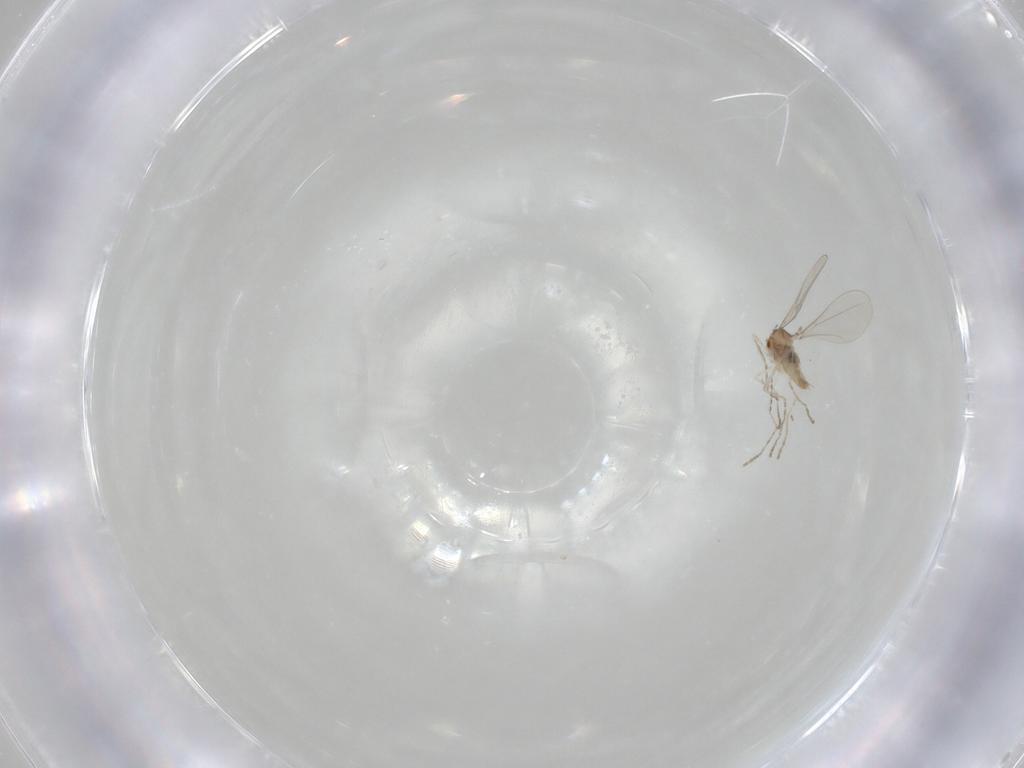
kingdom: Animalia
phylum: Arthropoda
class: Insecta
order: Diptera
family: Cecidomyiidae
